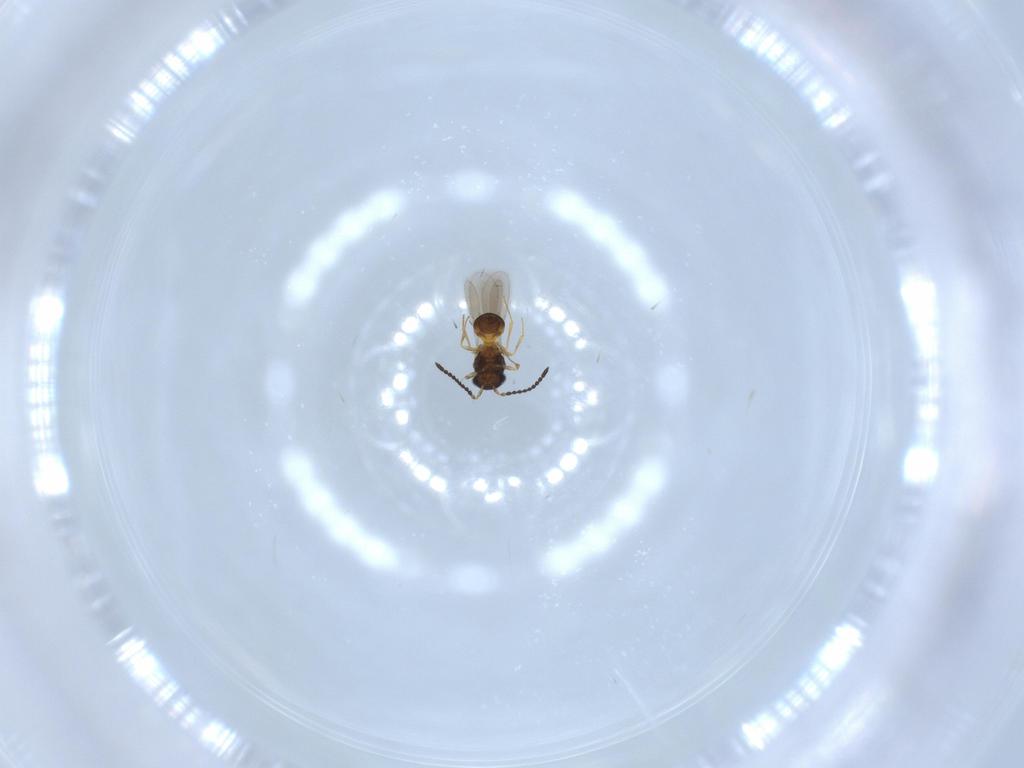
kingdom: Animalia
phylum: Arthropoda
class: Insecta
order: Hymenoptera
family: Scelionidae
